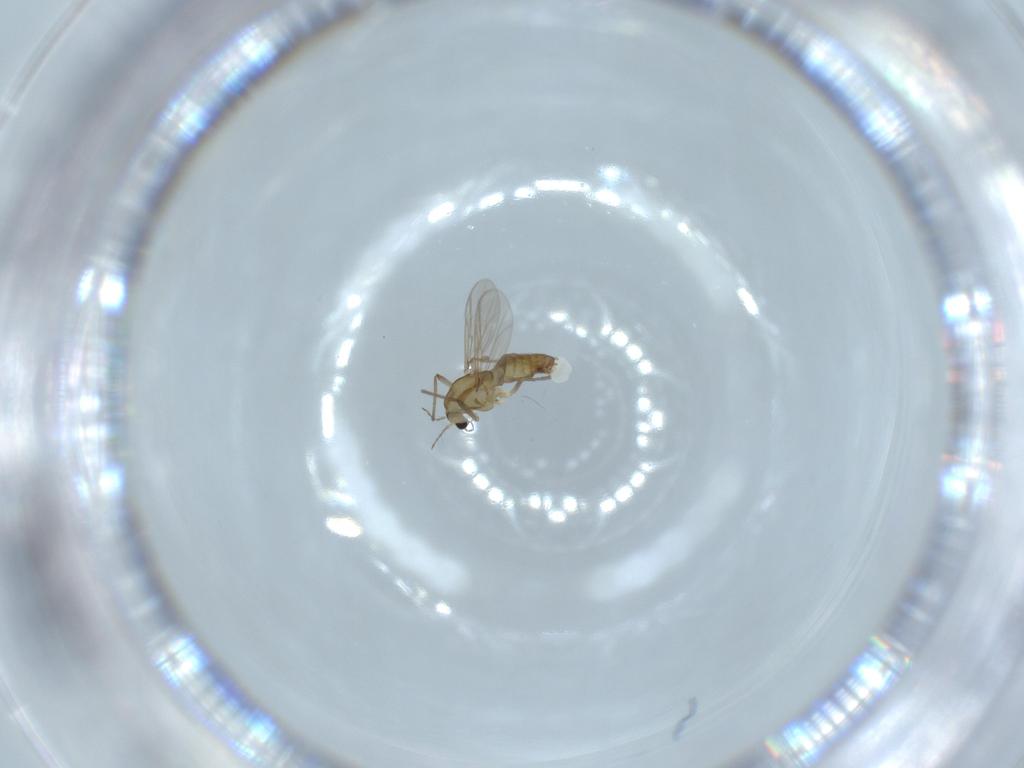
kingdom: Animalia
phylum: Arthropoda
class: Insecta
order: Diptera
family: Chironomidae
